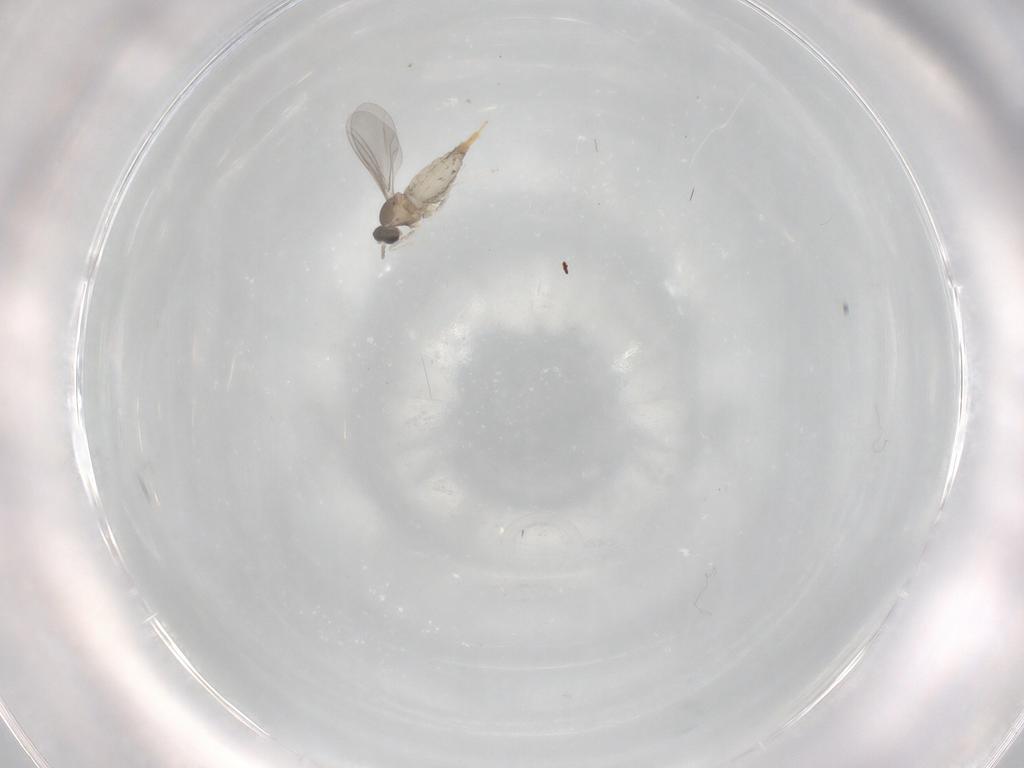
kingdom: Animalia
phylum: Arthropoda
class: Insecta
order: Diptera
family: Cecidomyiidae
